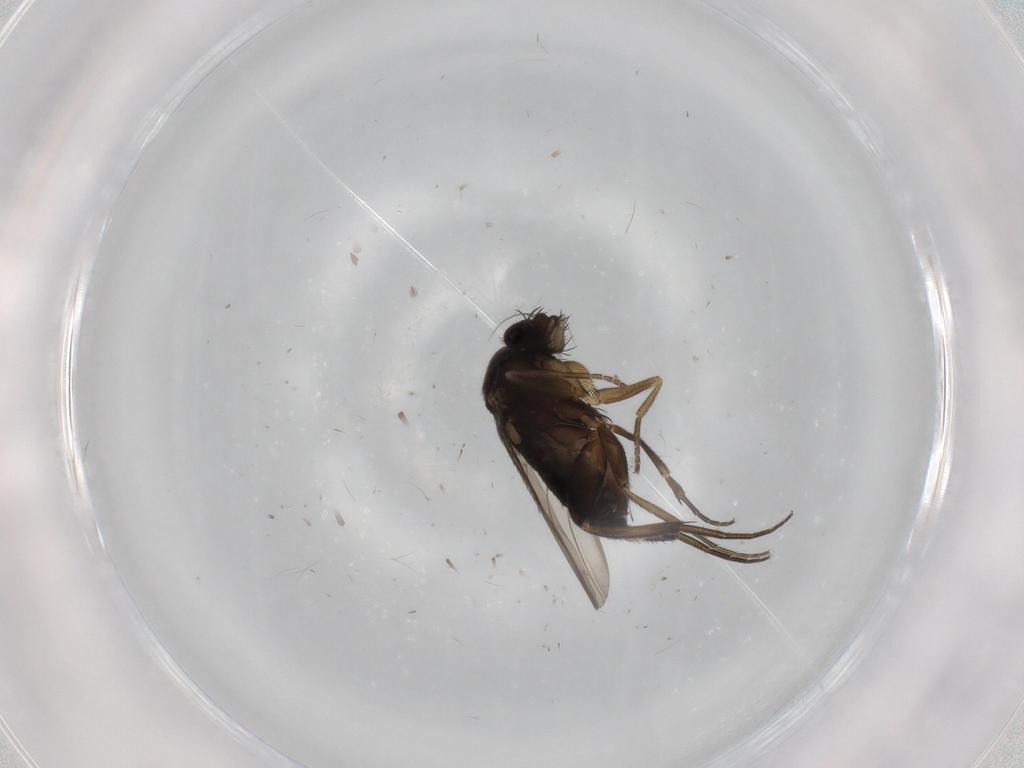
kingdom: Animalia
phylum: Arthropoda
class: Insecta
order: Diptera
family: Phoridae
